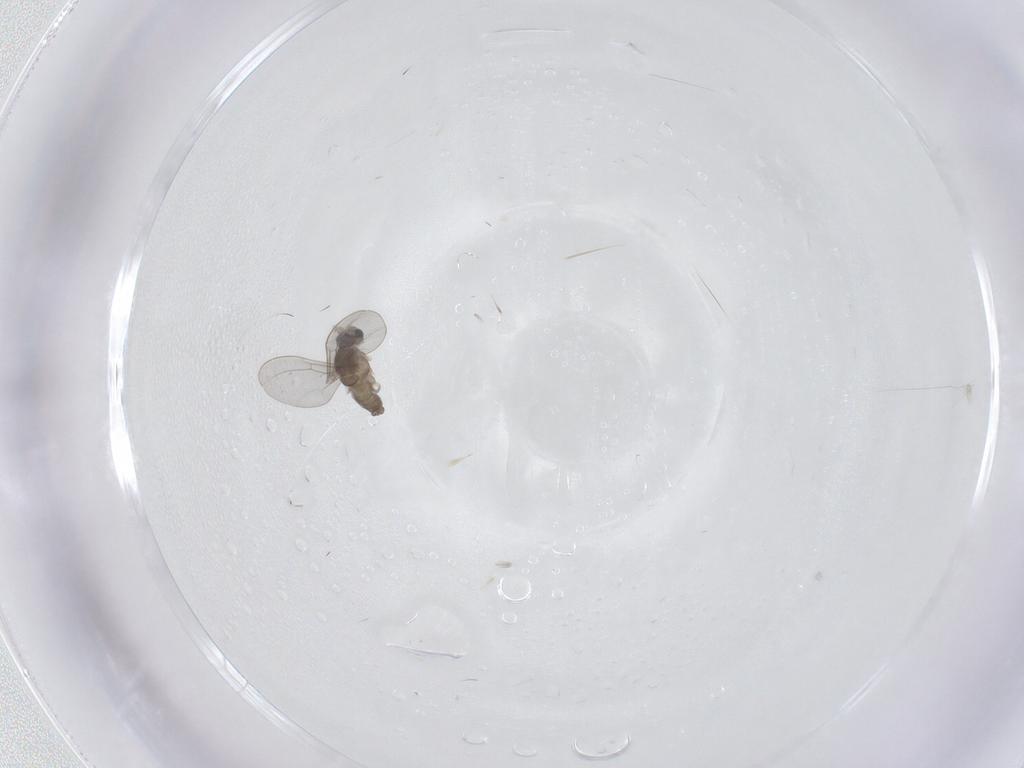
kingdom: Animalia
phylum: Arthropoda
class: Insecta
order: Diptera
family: Cecidomyiidae
